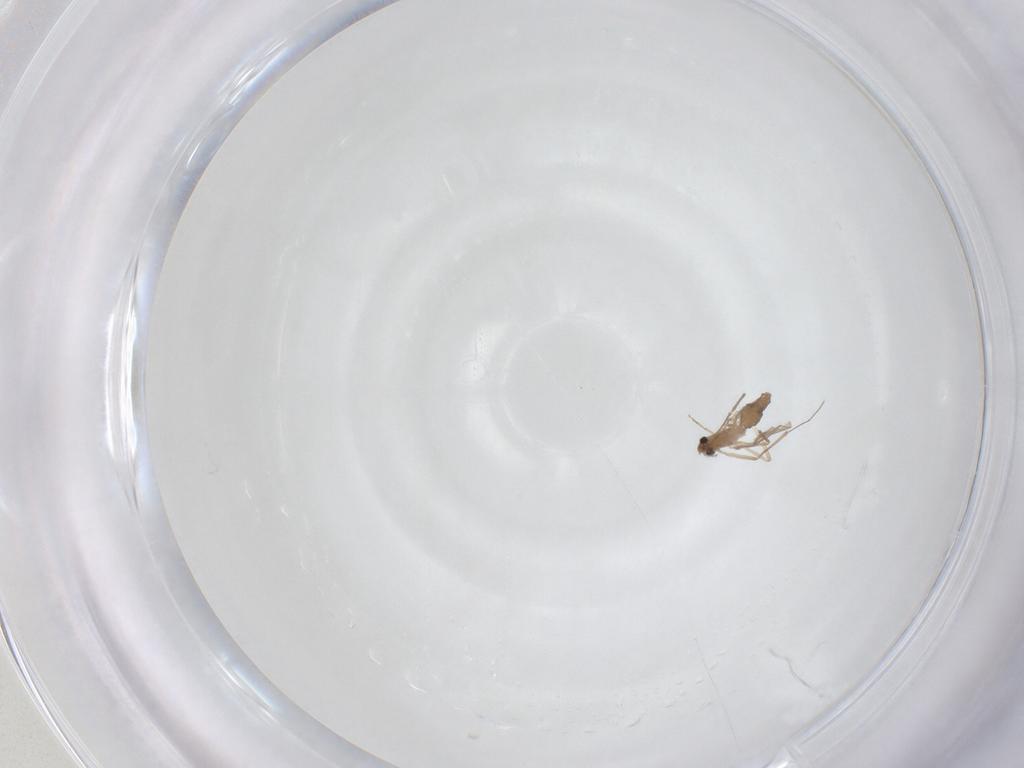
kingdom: Animalia
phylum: Arthropoda
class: Insecta
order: Diptera
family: Chironomidae
